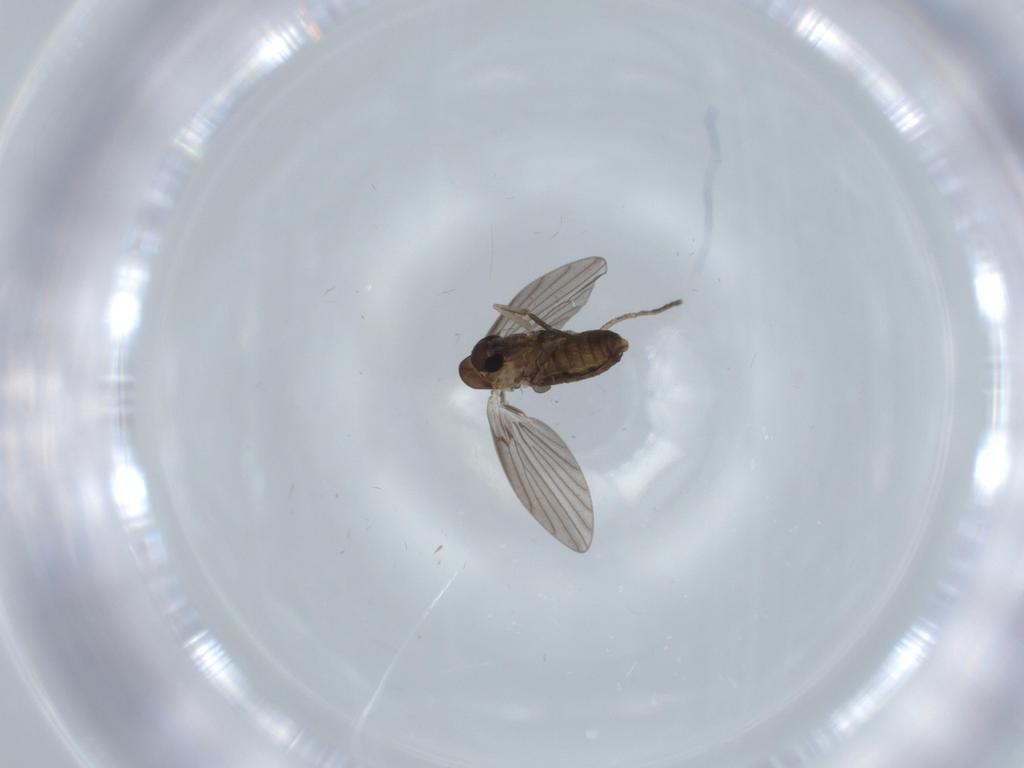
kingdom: Animalia
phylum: Arthropoda
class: Insecta
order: Diptera
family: Psychodidae
